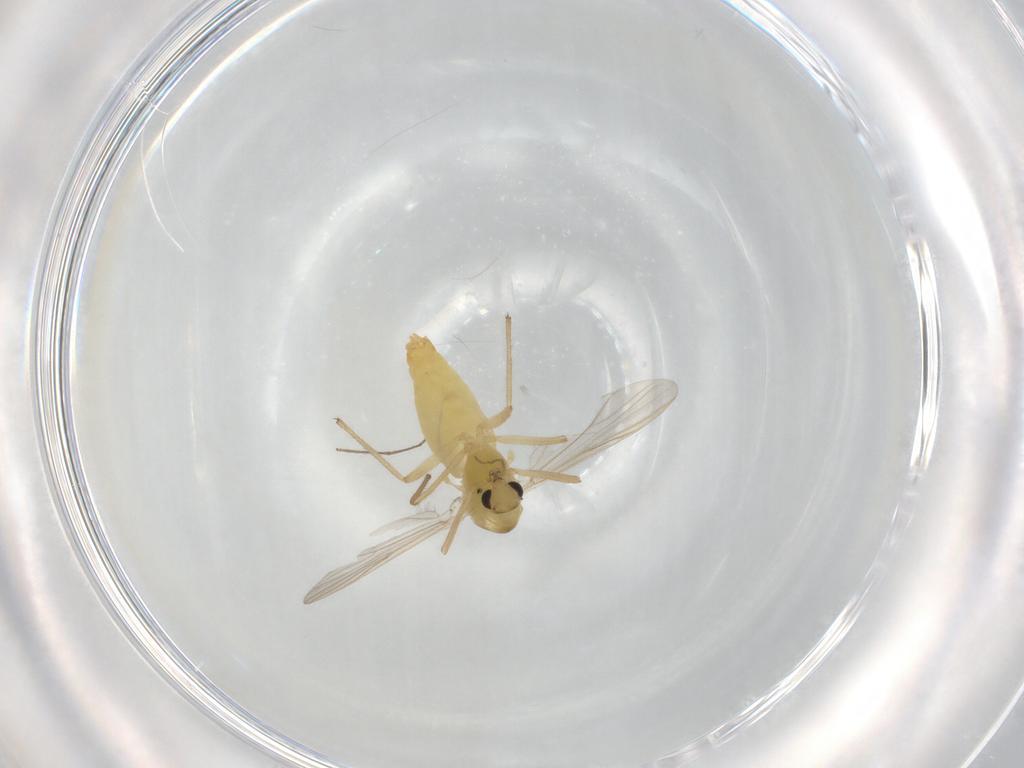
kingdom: Animalia
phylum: Arthropoda
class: Insecta
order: Diptera
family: Chironomidae
